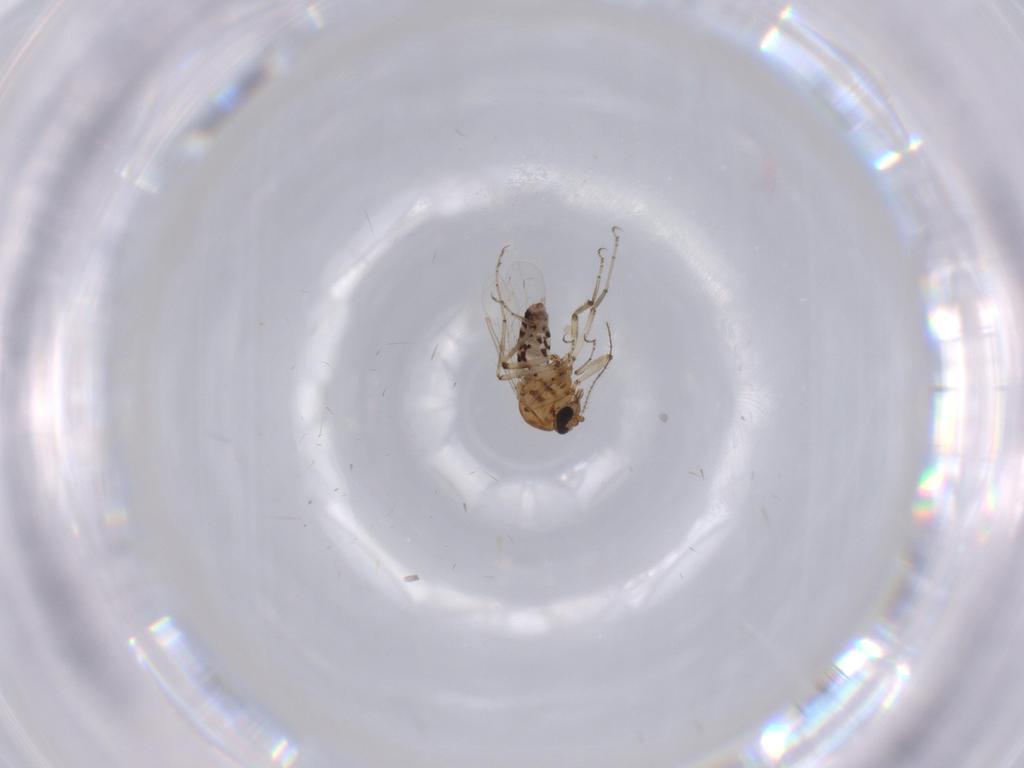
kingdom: Animalia
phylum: Arthropoda
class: Insecta
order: Diptera
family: Ceratopogonidae
